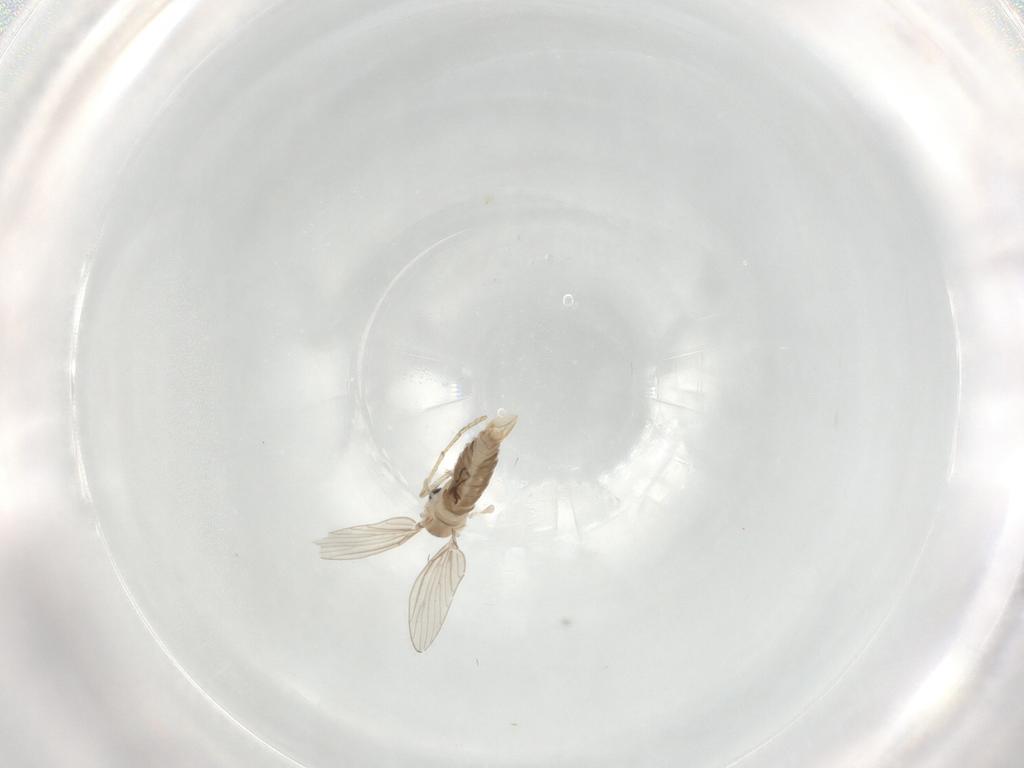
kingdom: Animalia
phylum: Arthropoda
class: Insecta
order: Diptera
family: Psychodidae
